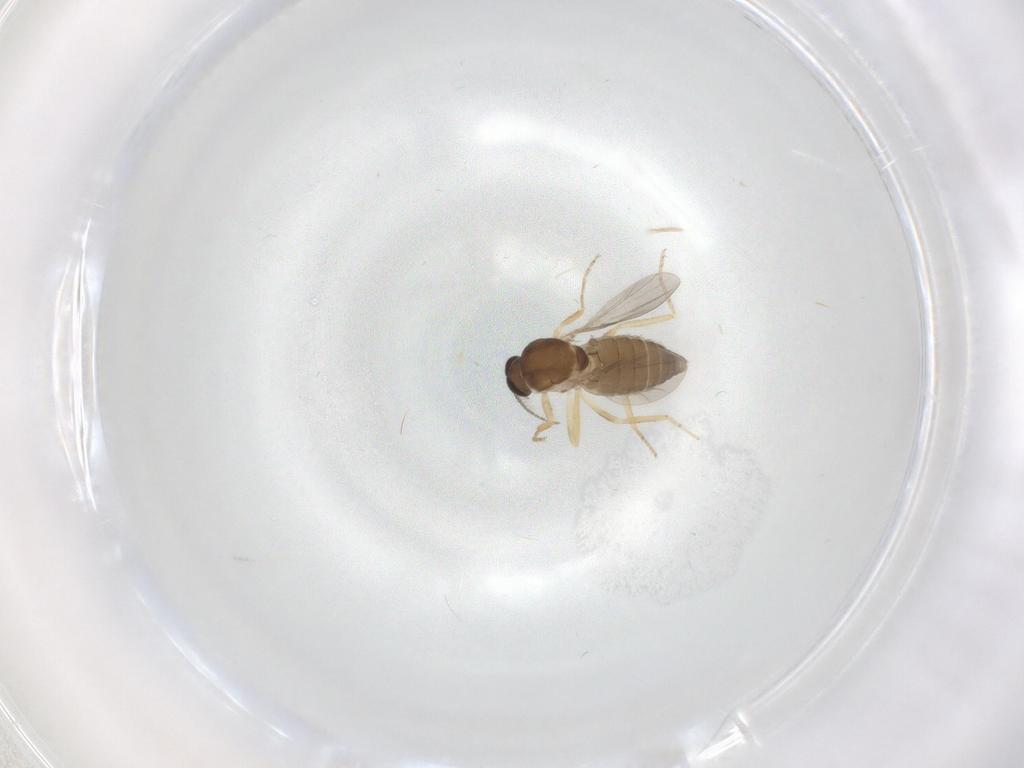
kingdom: Animalia
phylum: Arthropoda
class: Insecta
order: Diptera
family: Ceratopogonidae
